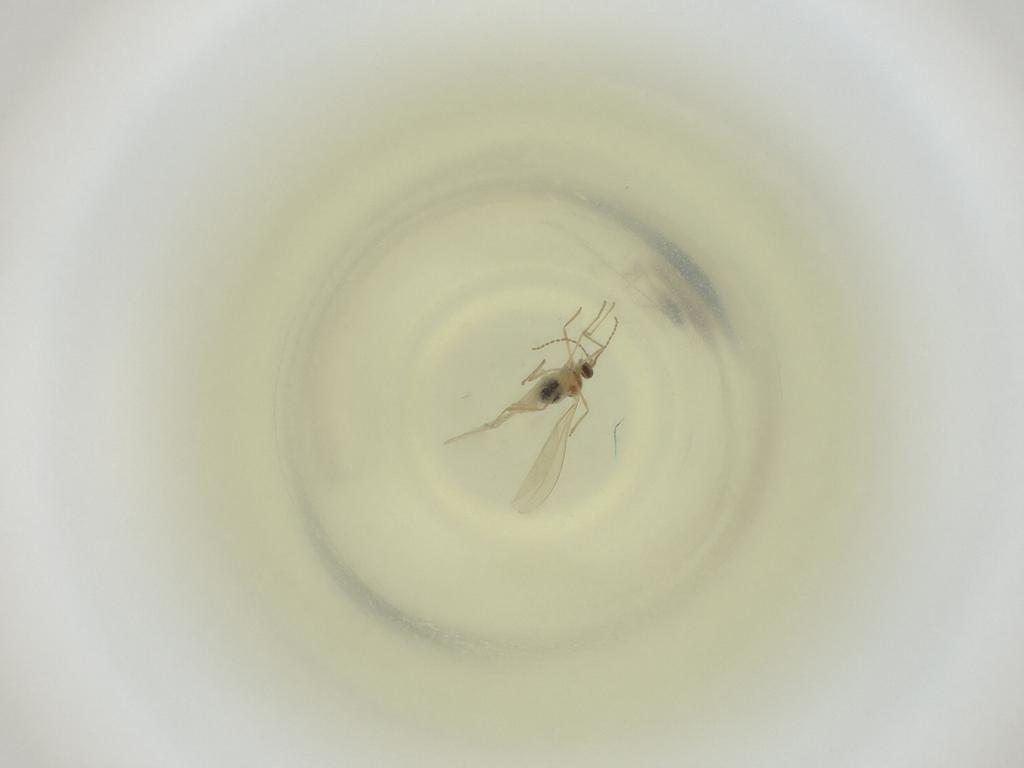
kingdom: Animalia
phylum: Arthropoda
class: Insecta
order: Diptera
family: Cecidomyiidae
